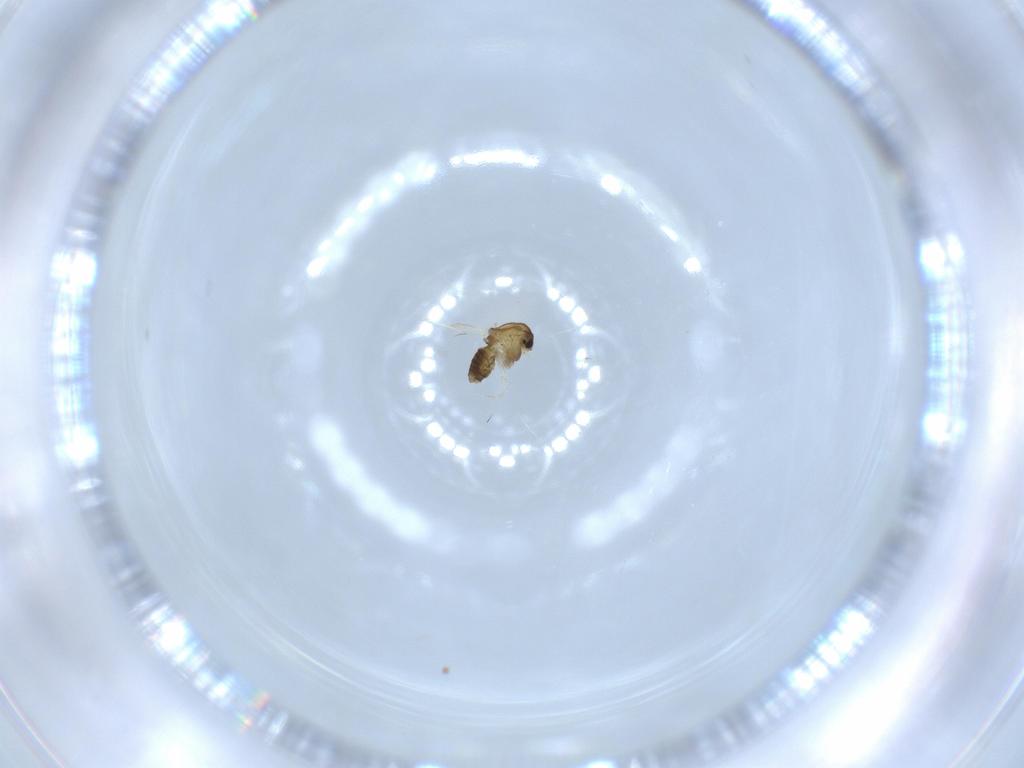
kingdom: Animalia
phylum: Arthropoda
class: Insecta
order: Diptera
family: Chironomidae
